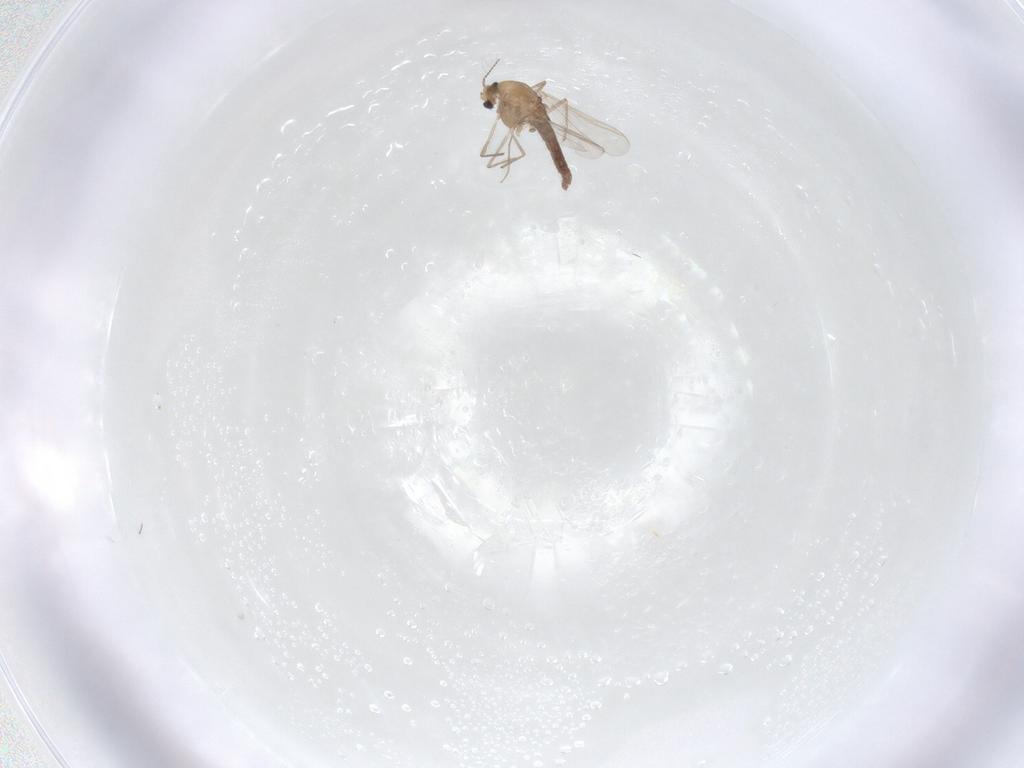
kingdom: Animalia
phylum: Arthropoda
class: Insecta
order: Diptera
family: Chironomidae
